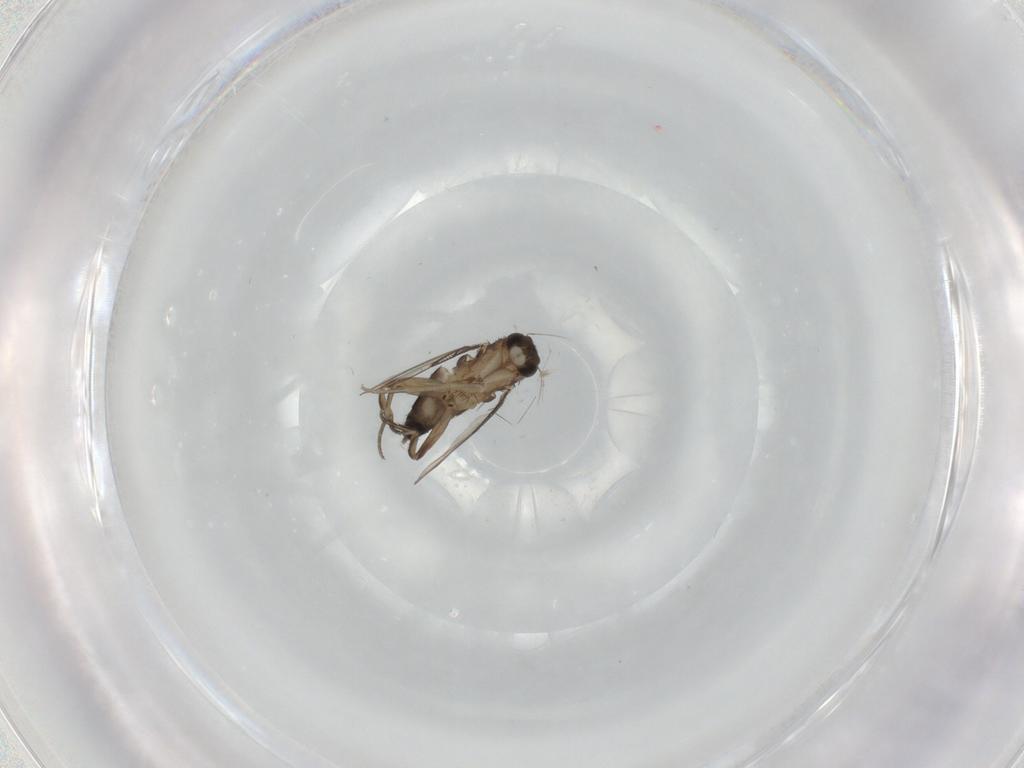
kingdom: Animalia
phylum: Arthropoda
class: Insecta
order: Diptera
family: Phoridae
